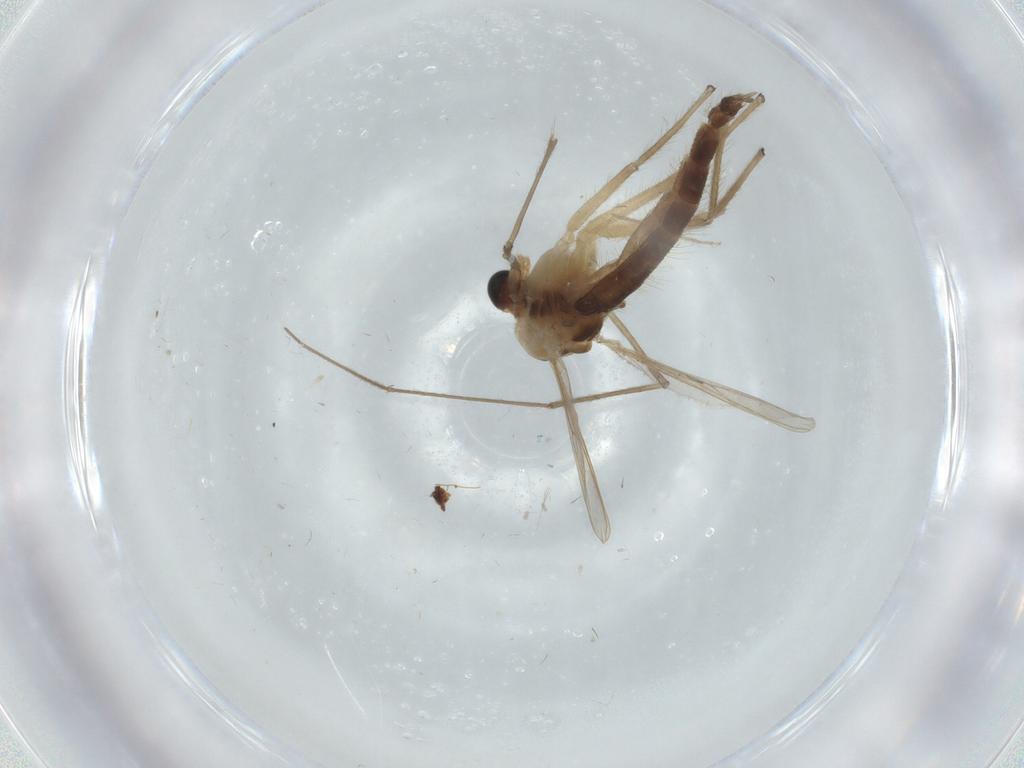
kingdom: Animalia
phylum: Arthropoda
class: Insecta
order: Diptera
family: Chironomidae
